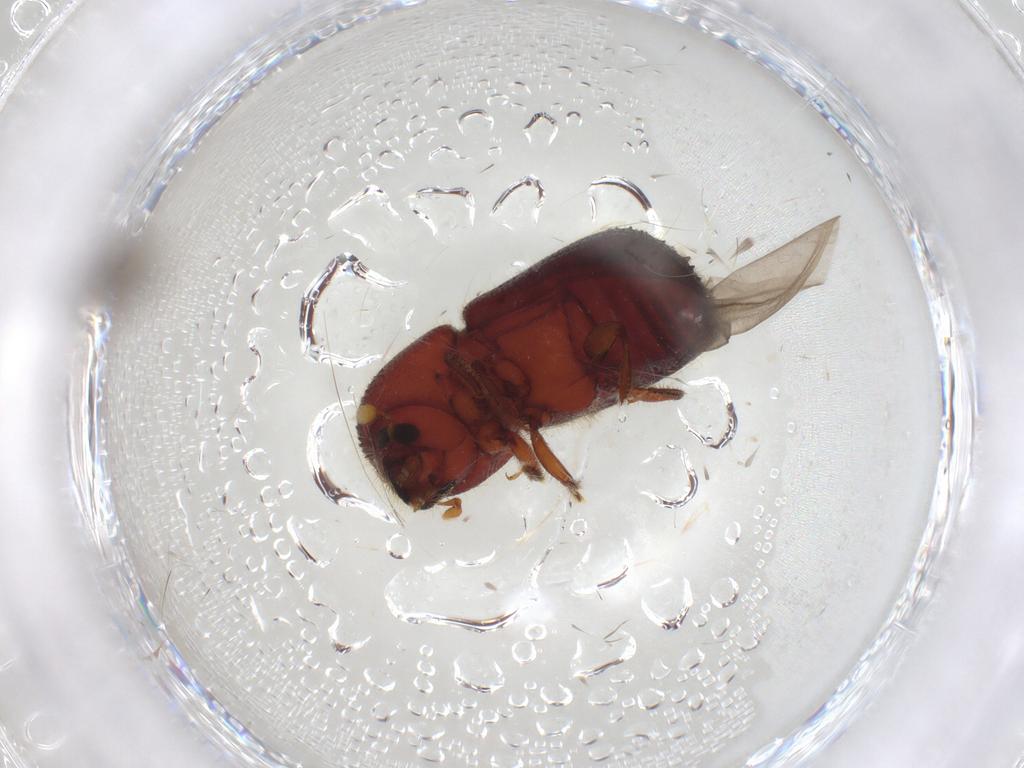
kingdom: Animalia
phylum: Arthropoda
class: Insecta
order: Coleoptera
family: Curculionidae
